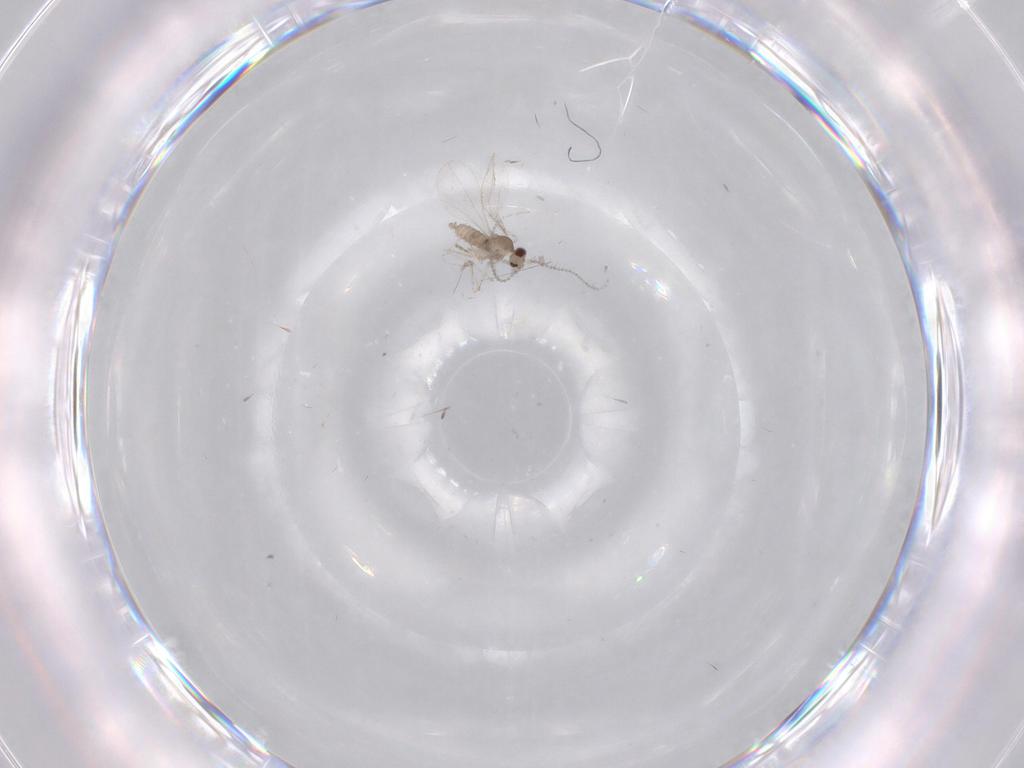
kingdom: Animalia
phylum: Arthropoda
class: Insecta
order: Diptera
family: Cecidomyiidae
